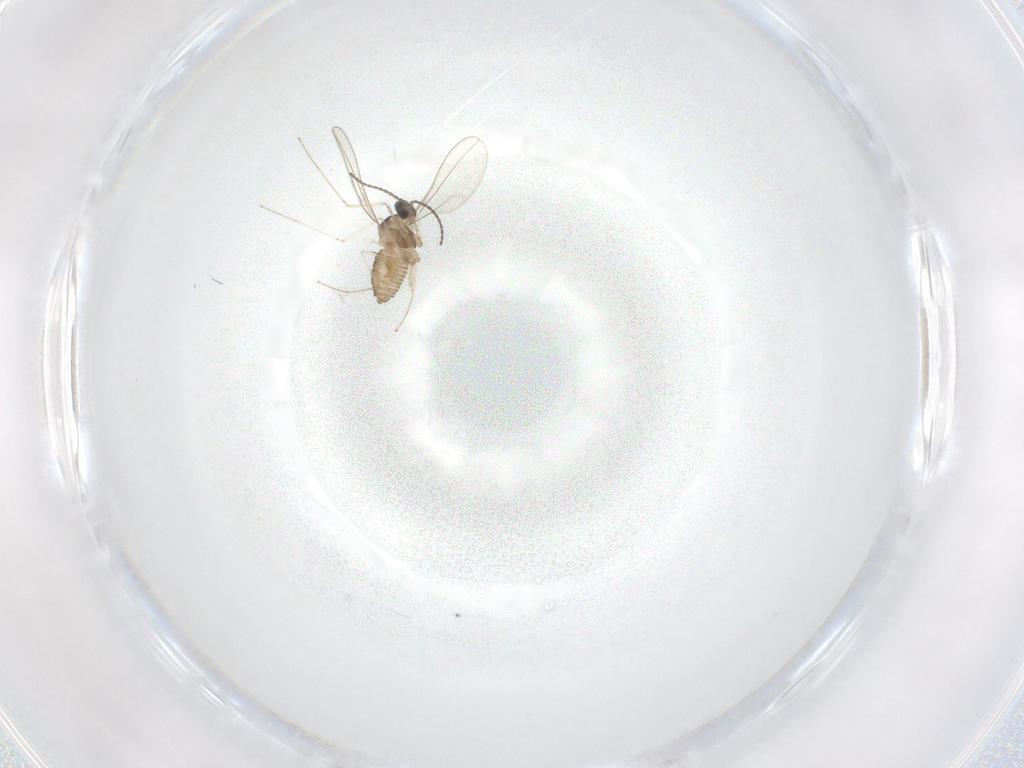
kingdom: Animalia
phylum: Arthropoda
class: Insecta
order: Diptera
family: Cecidomyiidae
